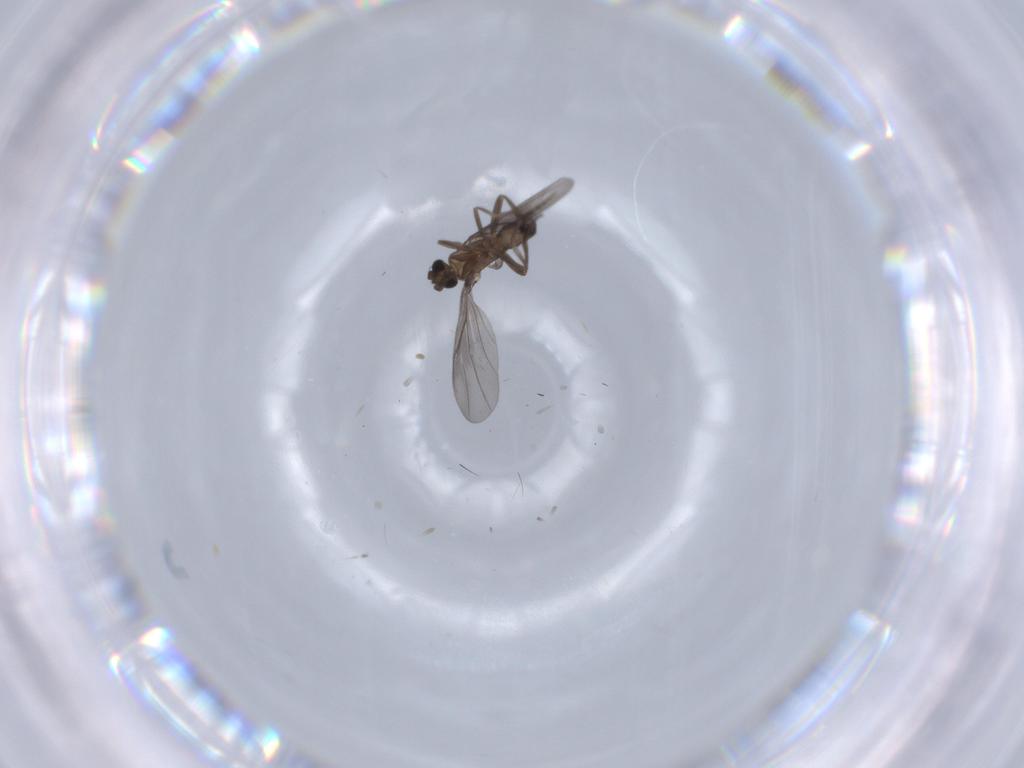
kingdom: Animalia
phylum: Arthropoda
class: Insecta
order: Diptera
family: Phoridae
